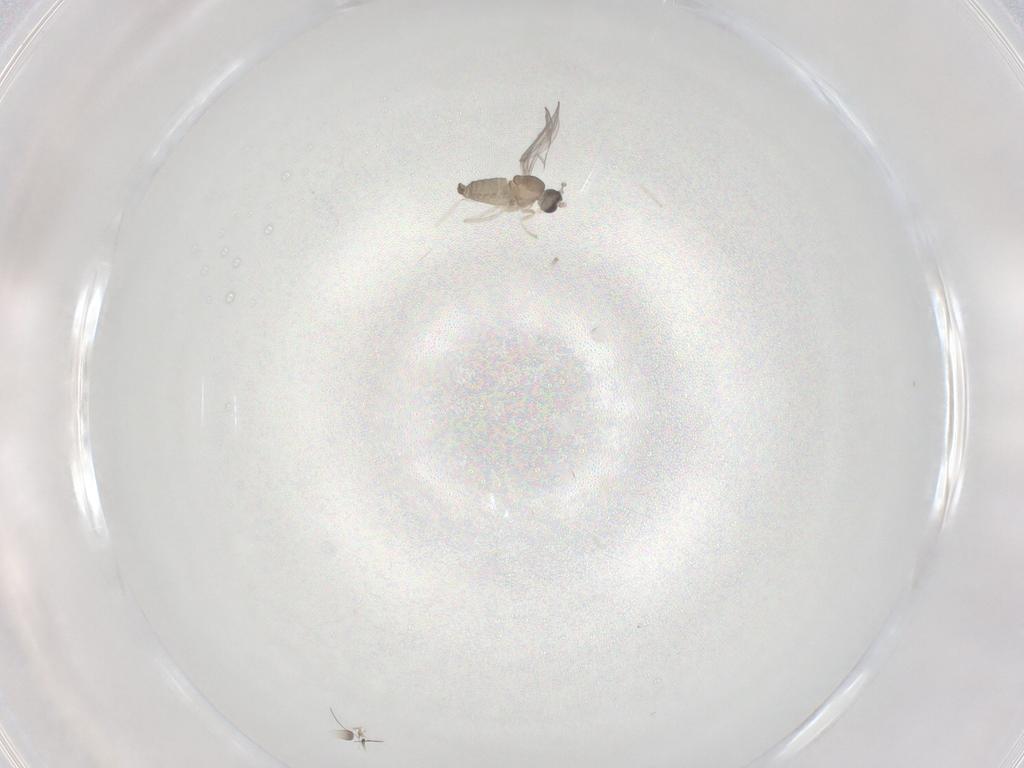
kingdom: Animalia
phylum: Arthropoda
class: Insecta
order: Diptera
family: Cecidomyiidae
